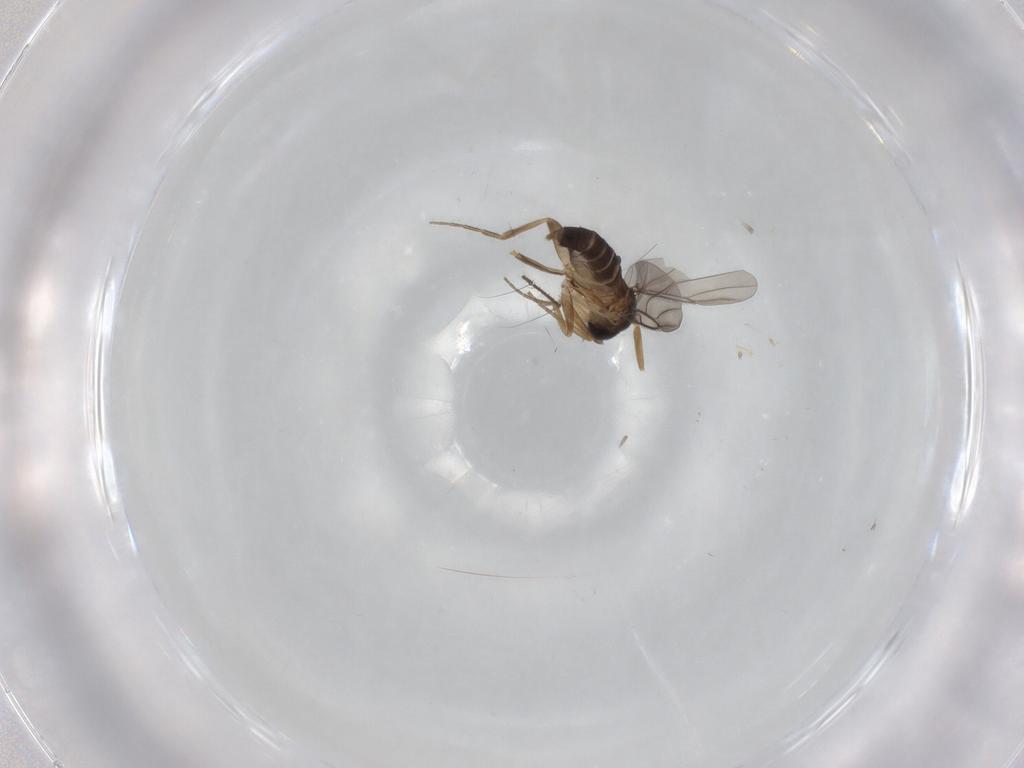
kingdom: Animalia
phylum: Arthropoda
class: Insecta
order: Diptera
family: Cecidomyiidae
